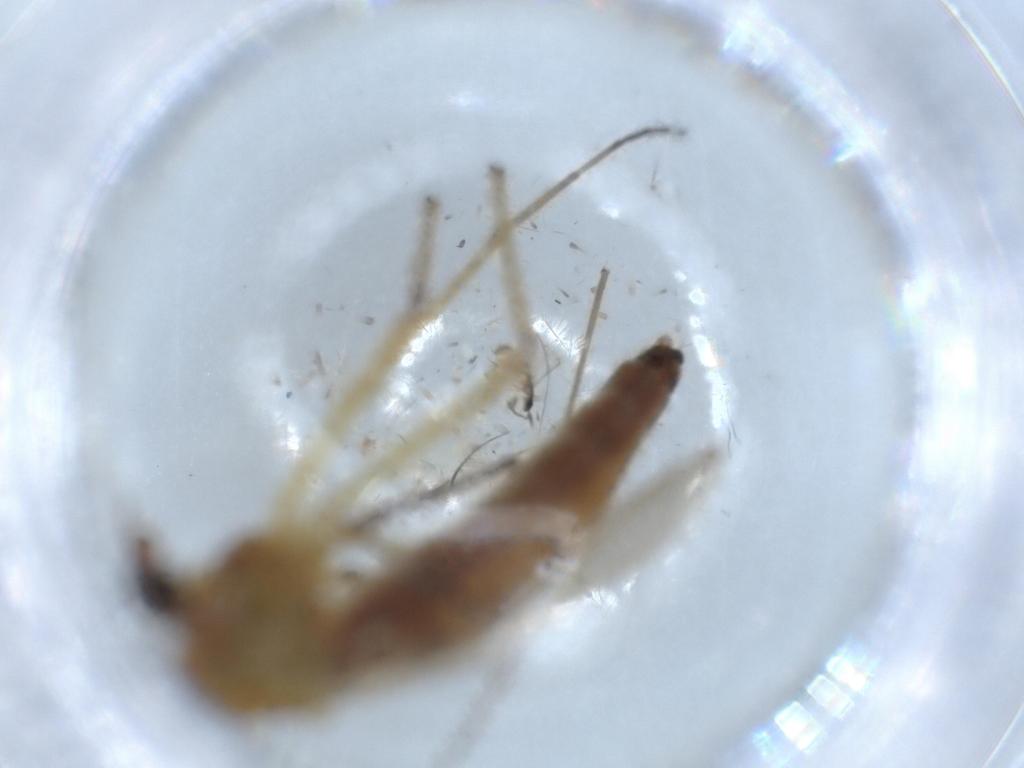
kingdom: Animalia
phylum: Arthropoda
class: Insecta
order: Diptera
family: Chironomidae
